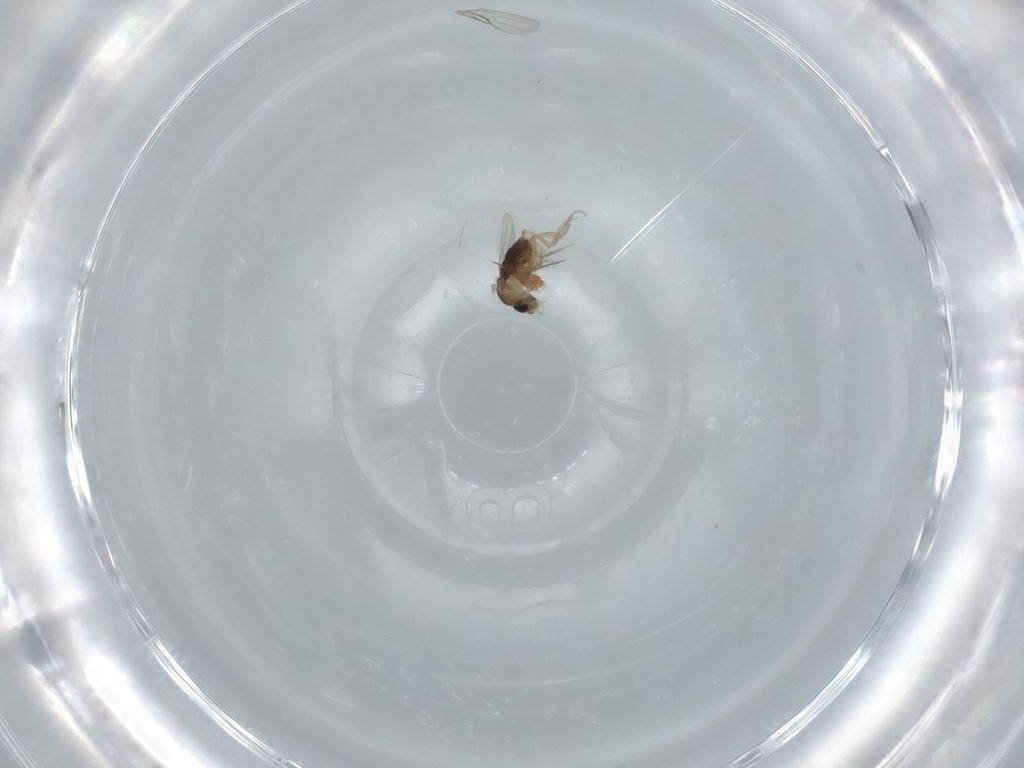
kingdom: Animalia
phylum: Arthropoda
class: Insecta
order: Diptera
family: Phoridae
